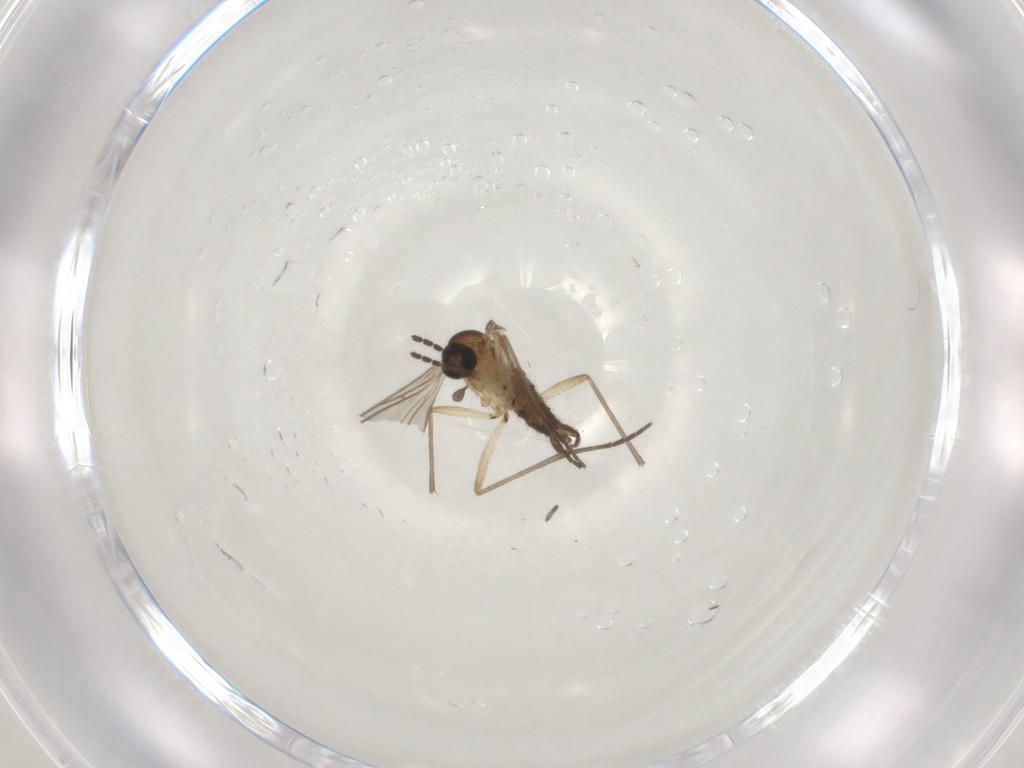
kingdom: Animalia
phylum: Arthropoda
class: Insecta
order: Diptera
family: Sciaridae
